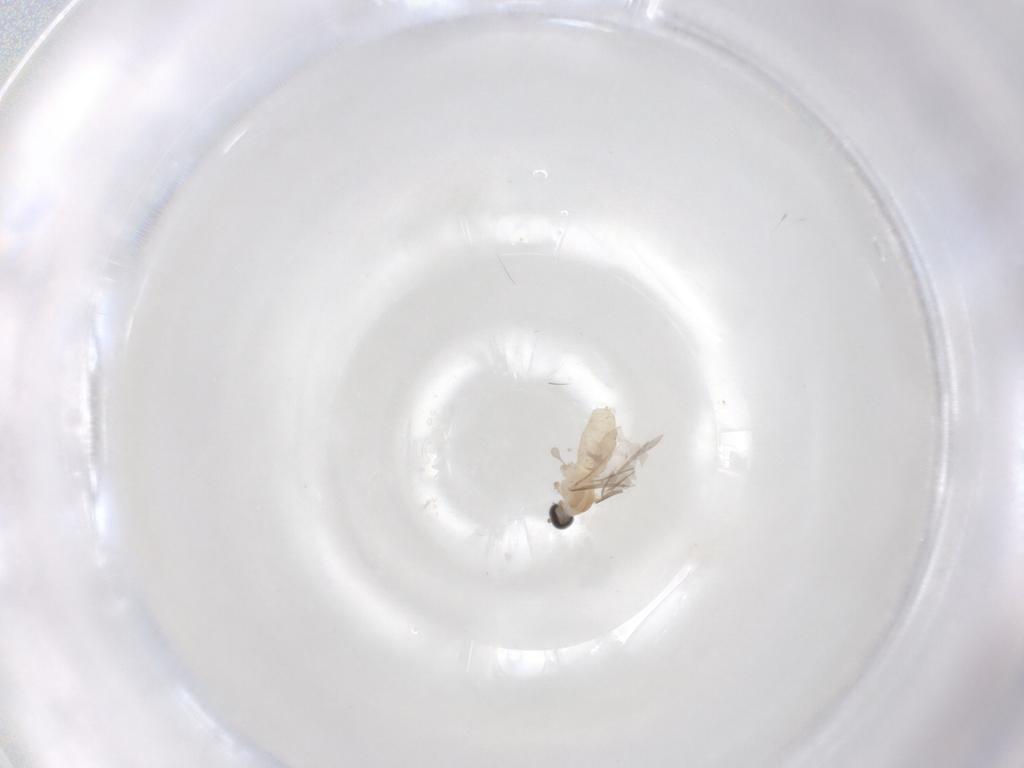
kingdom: Animalia
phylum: Arthropoda
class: Insecta
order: Diptera
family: Cecidomyiidae
